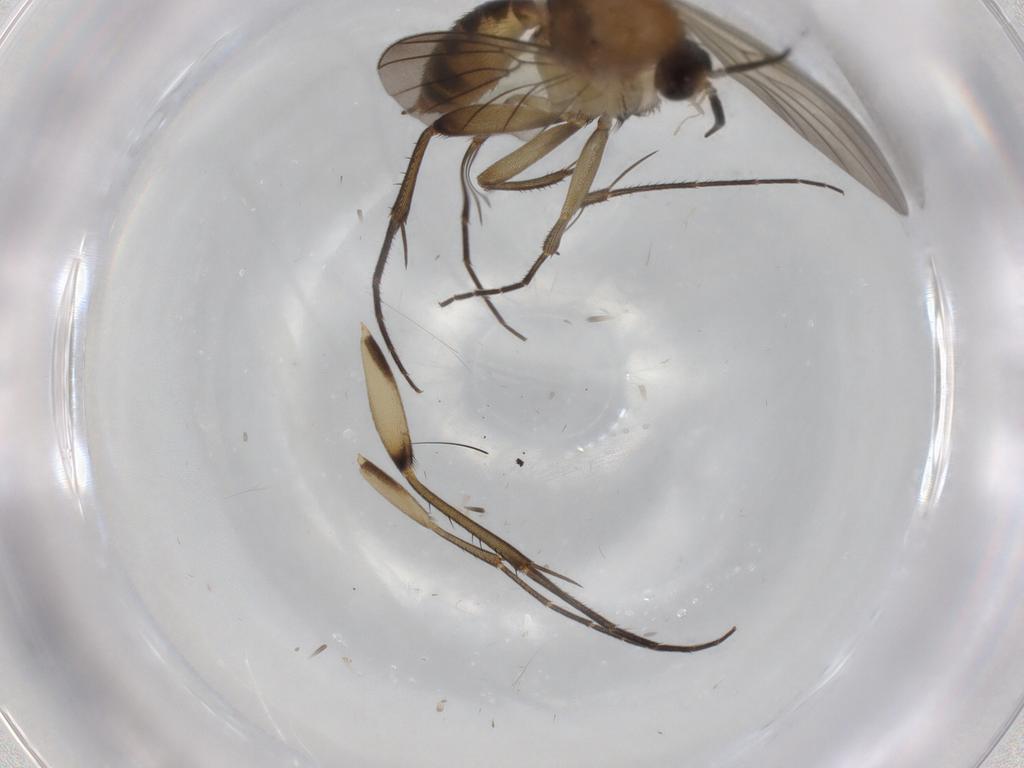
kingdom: Animalia
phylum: Arthropoda
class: Insecta
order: Diptera
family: Mycetophilidae
